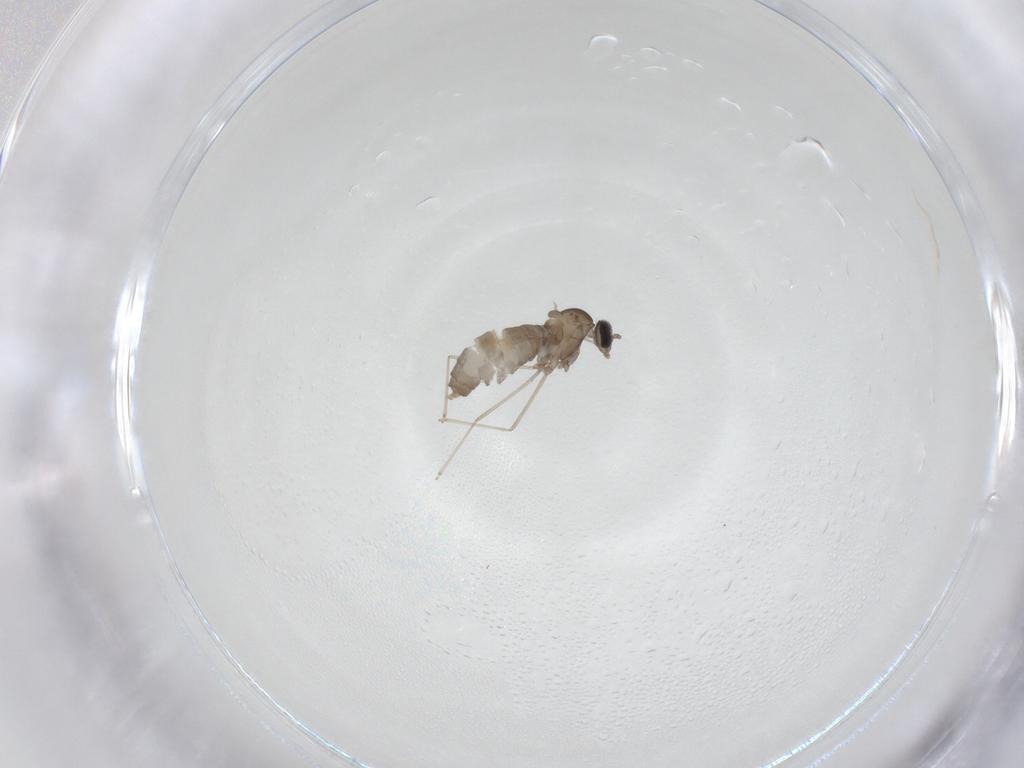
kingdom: Animalia
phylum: Arthropoda
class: Insecta
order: Diptera
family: Cecidomyiidae
